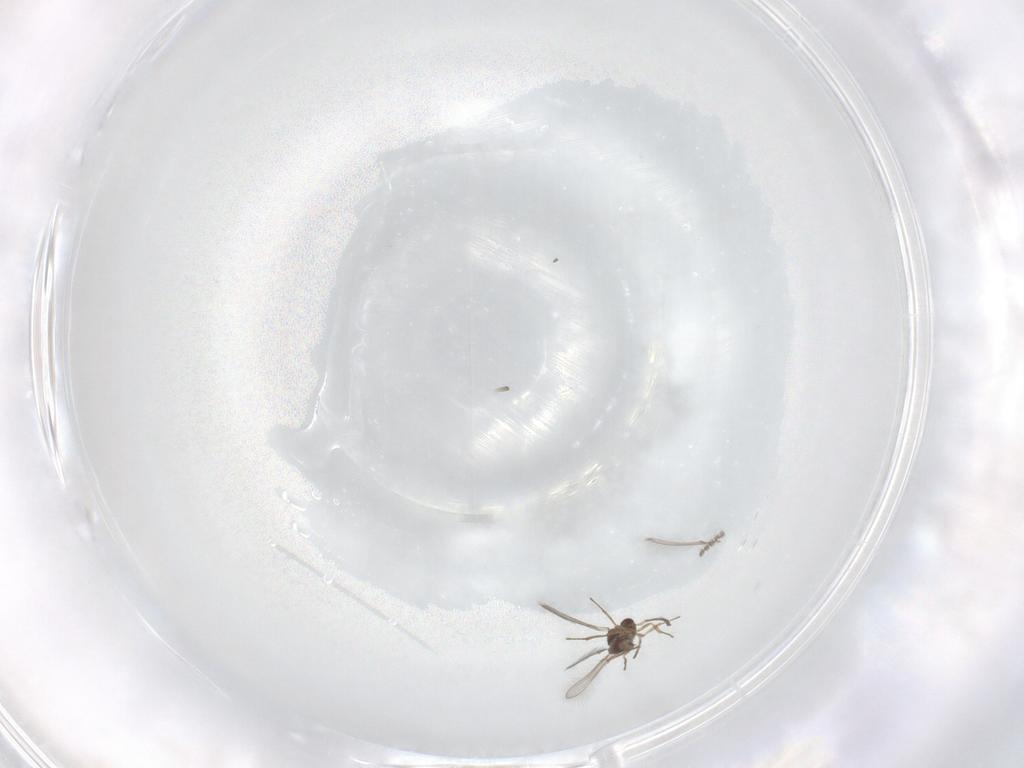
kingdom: Animalia
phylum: Arthropoda
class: Insecta
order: Hymenoptera
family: Mymaridae
